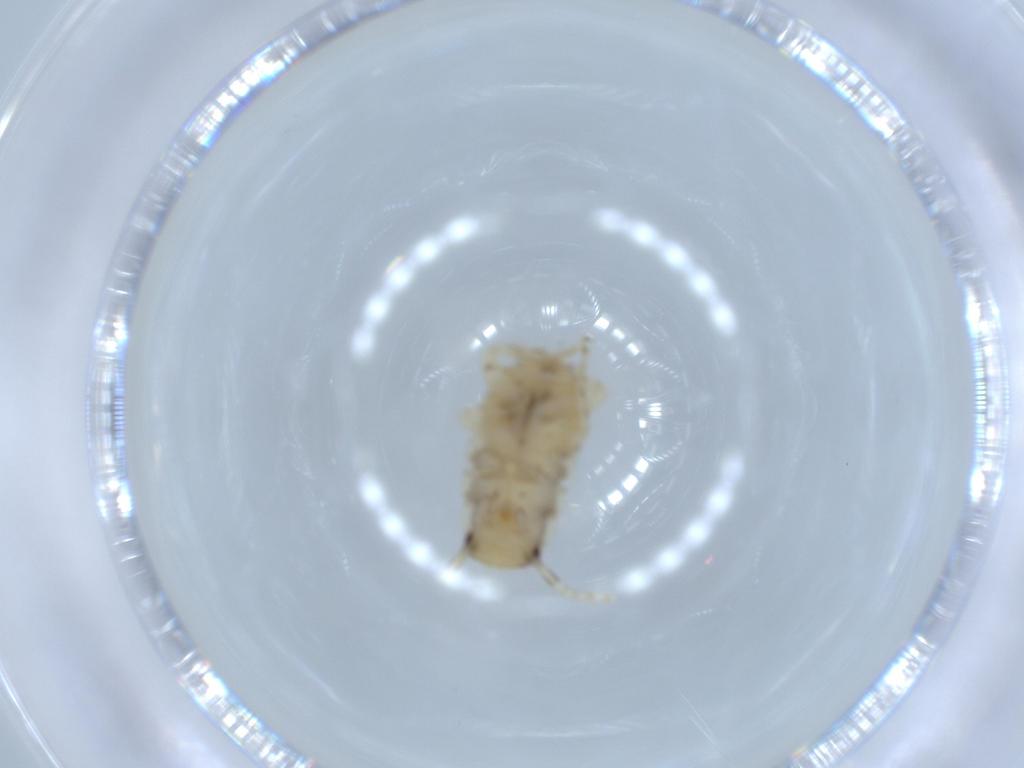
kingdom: Animalia
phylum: Arthropoda
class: Insecta
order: Blattodea
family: Ectobiidae
